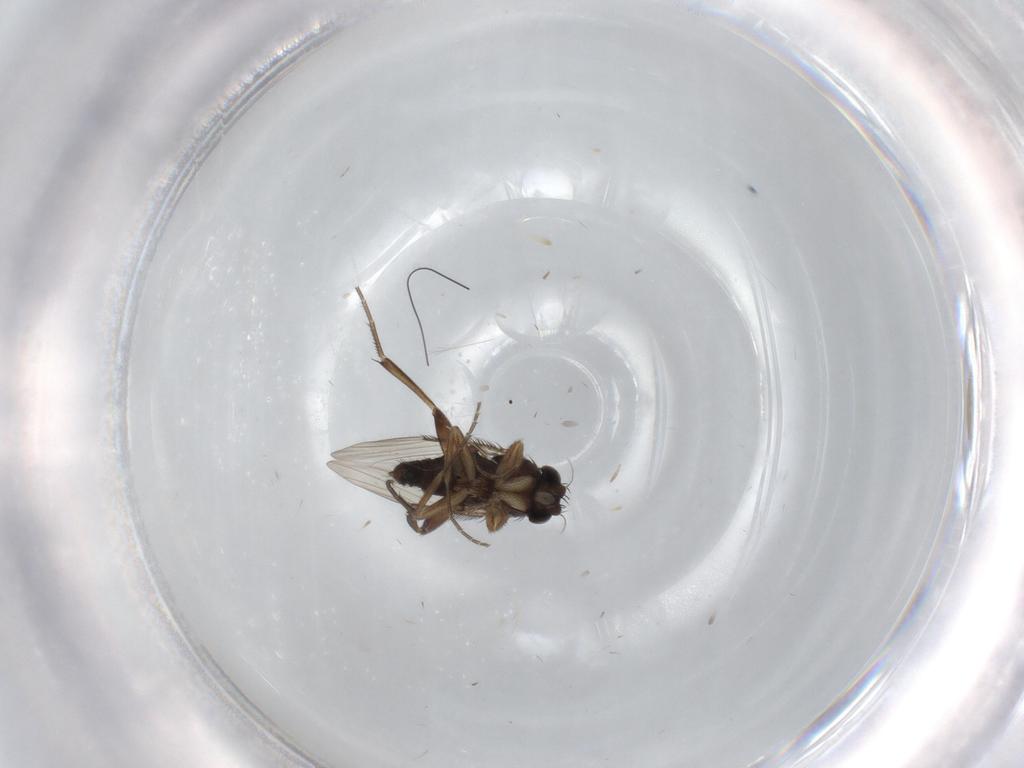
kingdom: Animalia
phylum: Arthropoda
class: Insecta
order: Diptera
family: Phoridae
